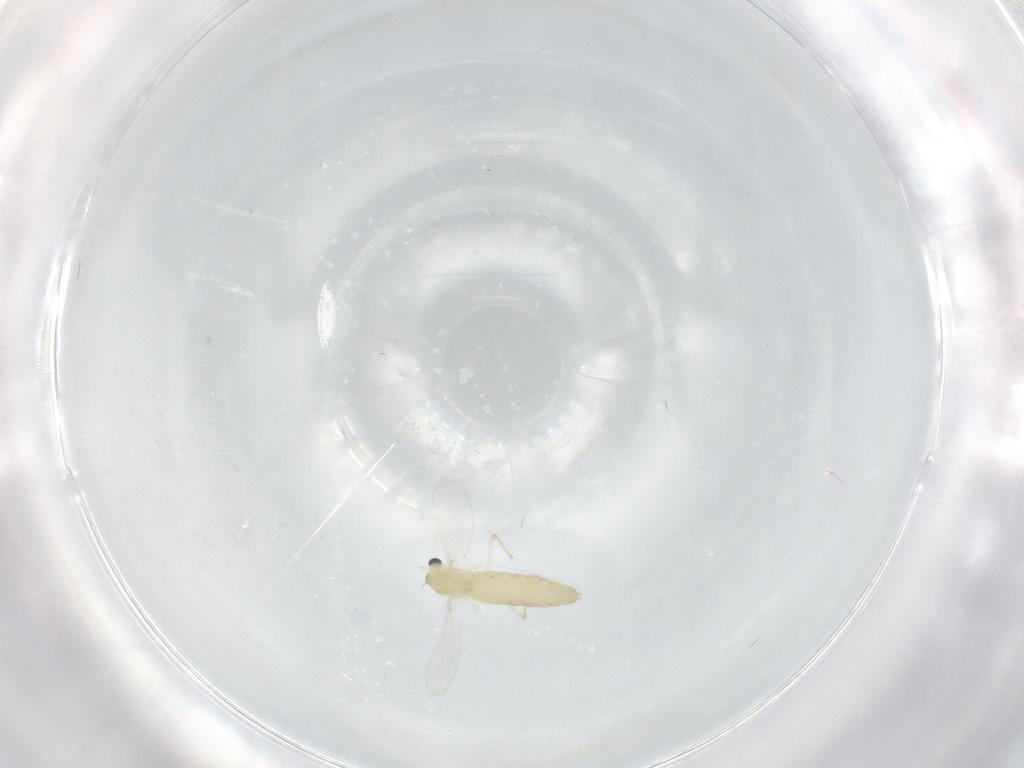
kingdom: Animalia
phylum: Arthropoda
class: Insecta
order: Diptera
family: Chironomidae
